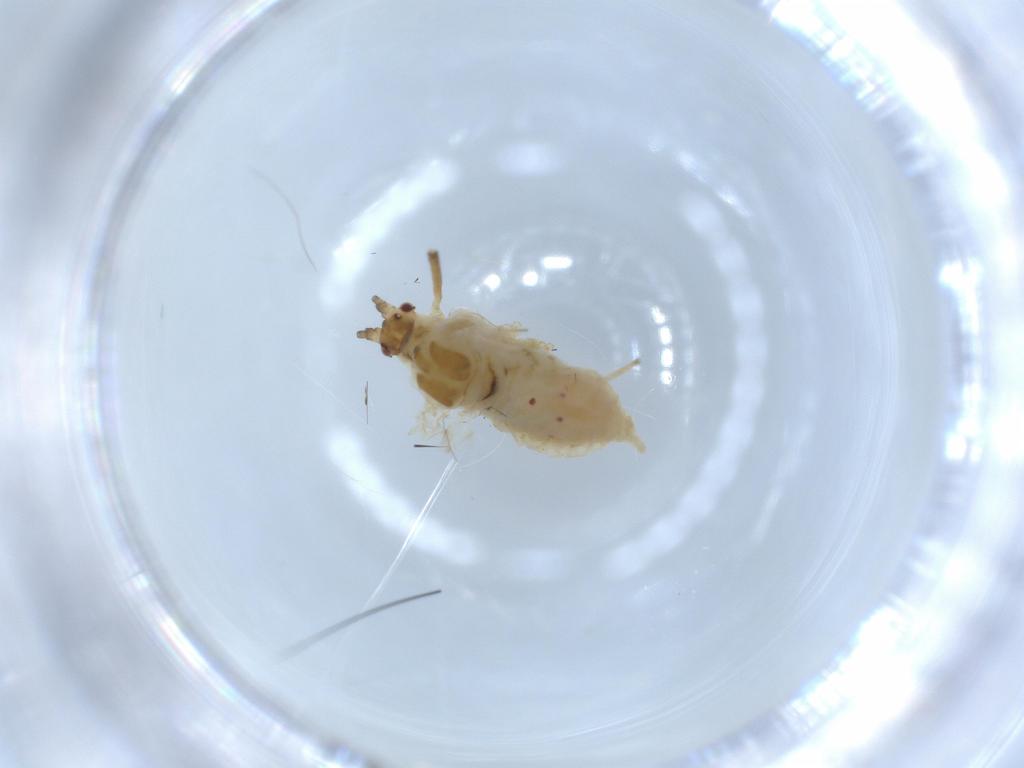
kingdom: Animalia
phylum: Arthropoda
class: Insecta
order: Hemiptera
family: Aphididae
